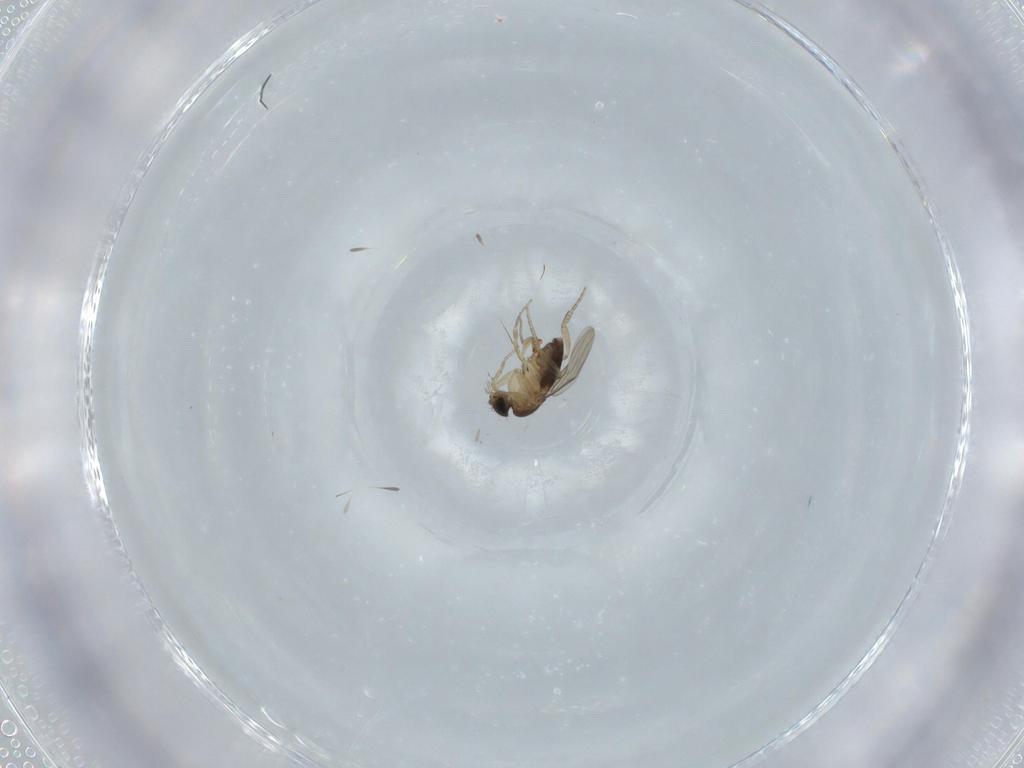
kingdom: Animalia
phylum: Arthropoda
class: Insecta
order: Diptera
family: Phoridae
